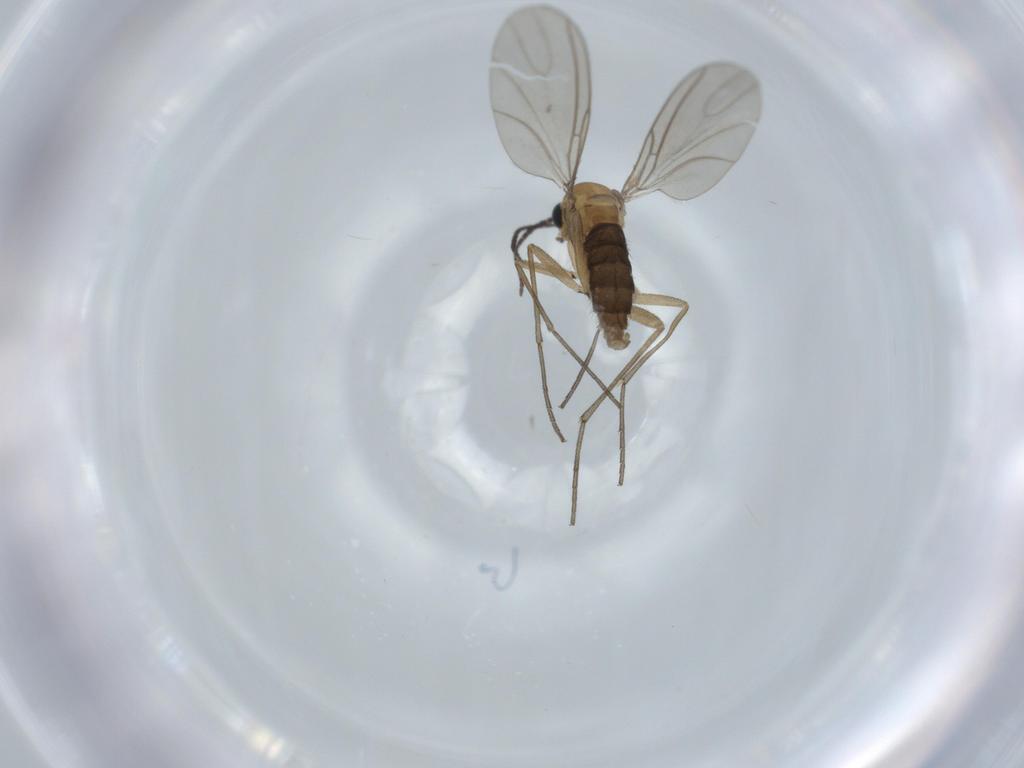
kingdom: Animalia
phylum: Arthropoda
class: Insecta
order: Diptera
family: Sciaridae
